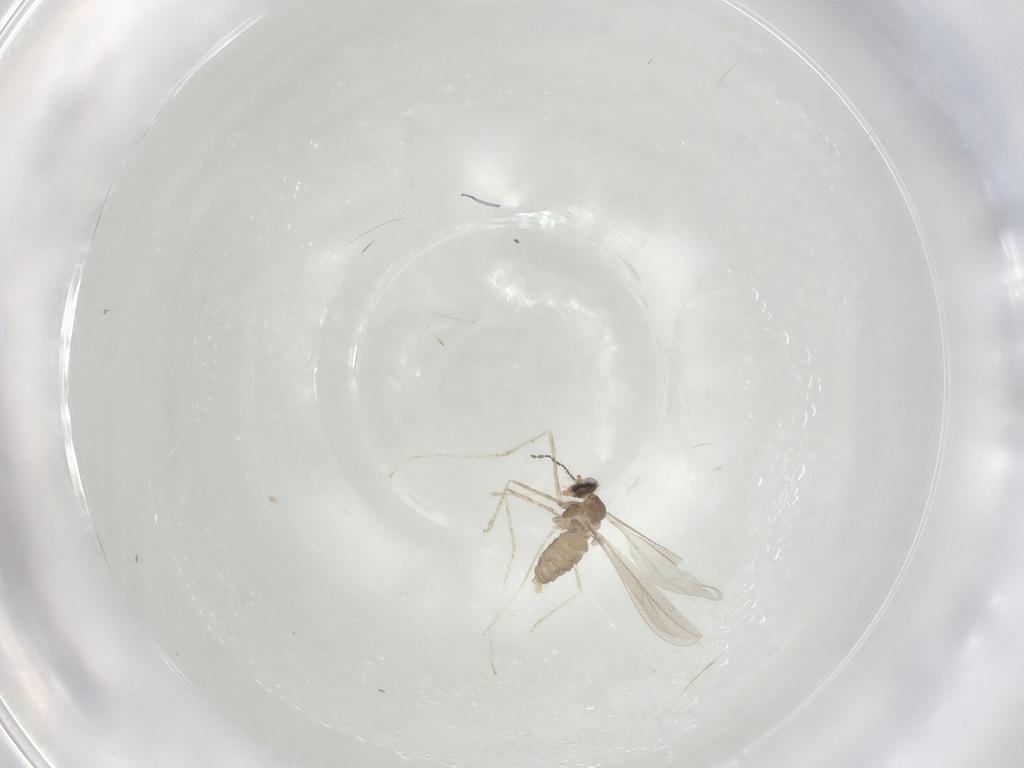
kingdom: Animalia
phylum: Arthropoda
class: Insecta
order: Diptera
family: Cecidomyiidae
